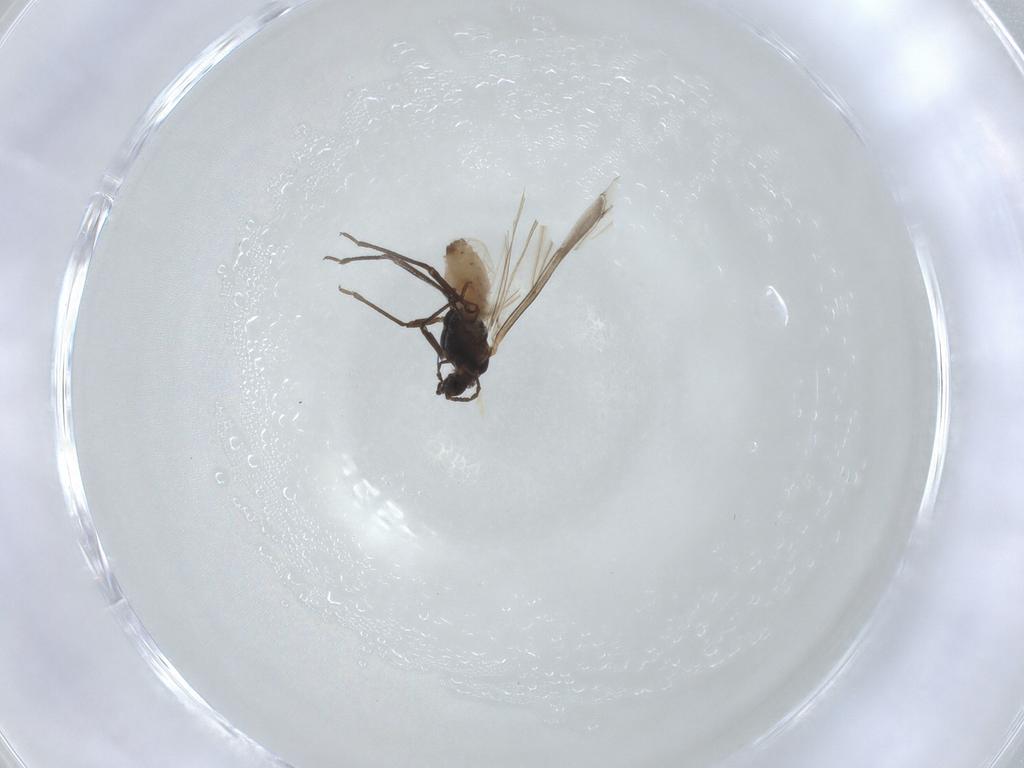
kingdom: Animalia
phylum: Arthropoda
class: Insecta
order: Hemiptera
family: Aphididae
